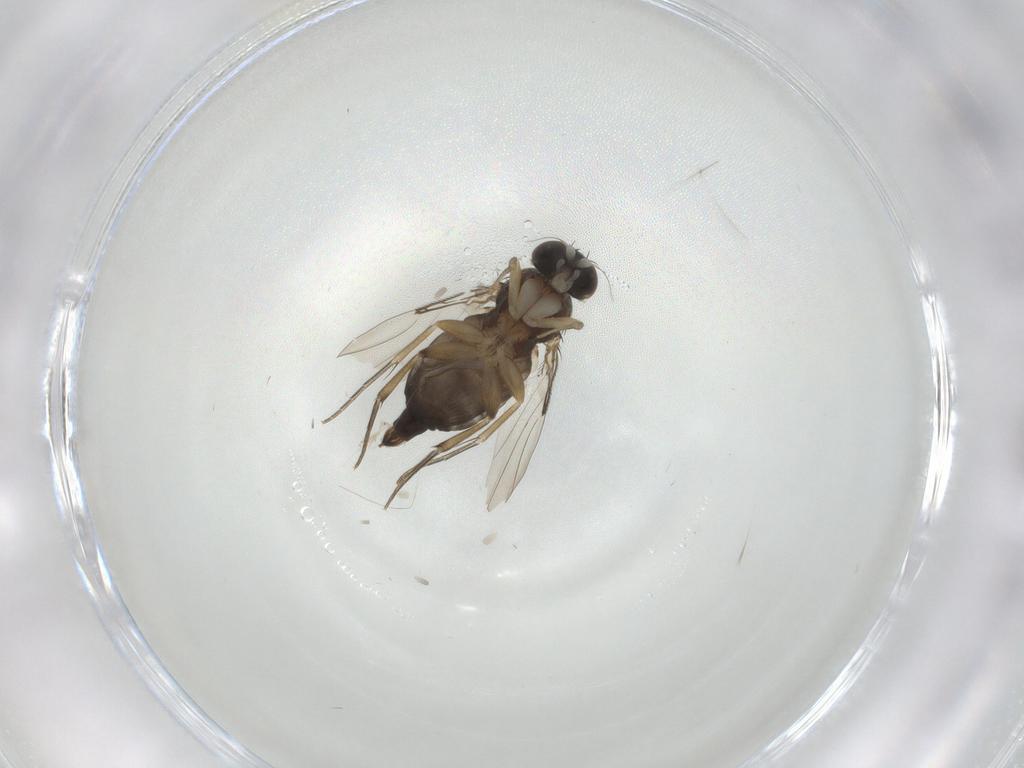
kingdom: Animalia
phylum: Arthropoda
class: Insecta
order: Diptera
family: Phoridae
